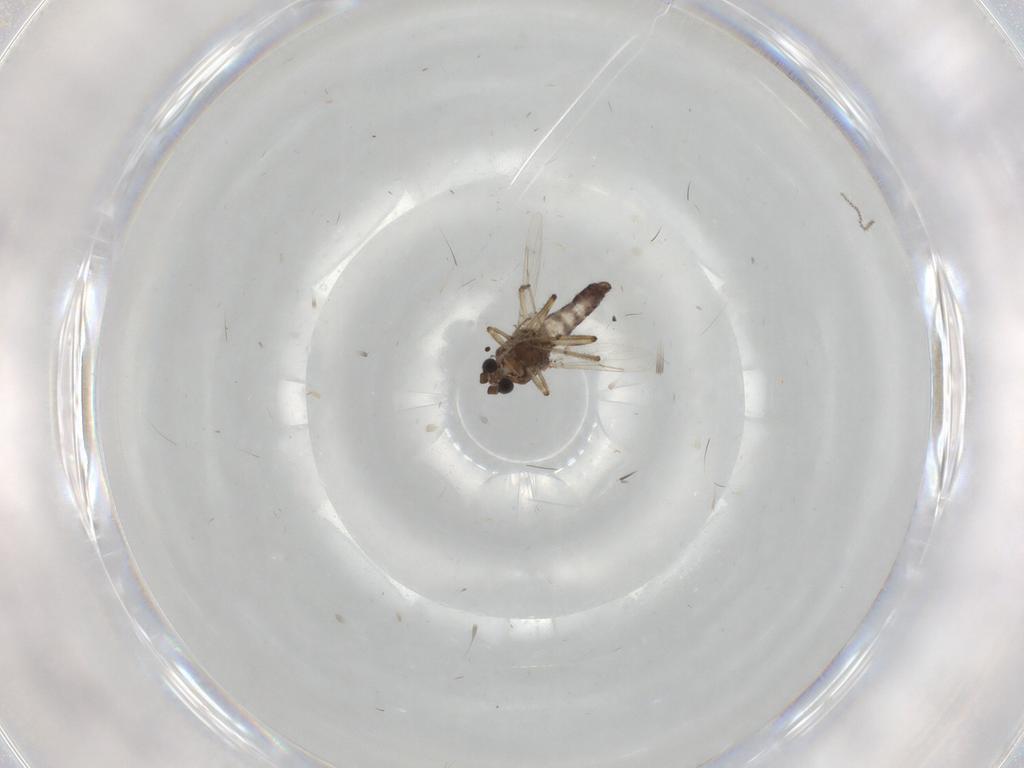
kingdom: Animalia
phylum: Arthropoda
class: Insecta
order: Diptera
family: Ceratopogonidae
